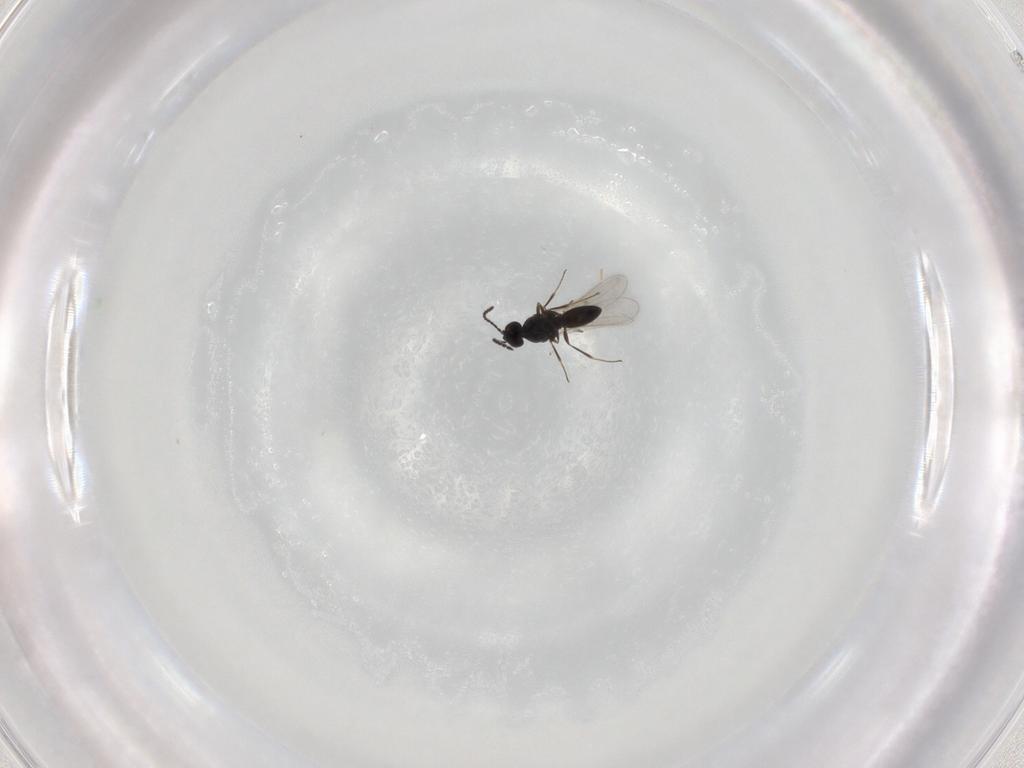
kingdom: Animalia
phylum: Arthropoda
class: Insecta
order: Hymenoptera
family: Scelionidae
